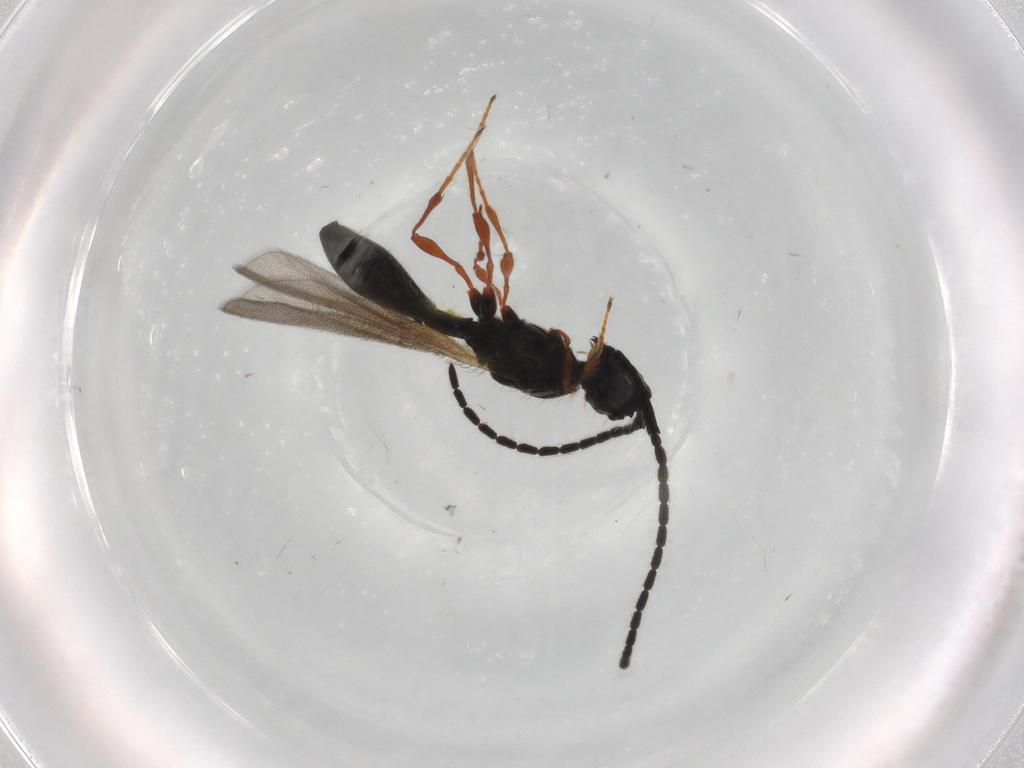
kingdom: Animalia
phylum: Arthropoda
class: Insecta
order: Hymenoptera
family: Diapriidae
